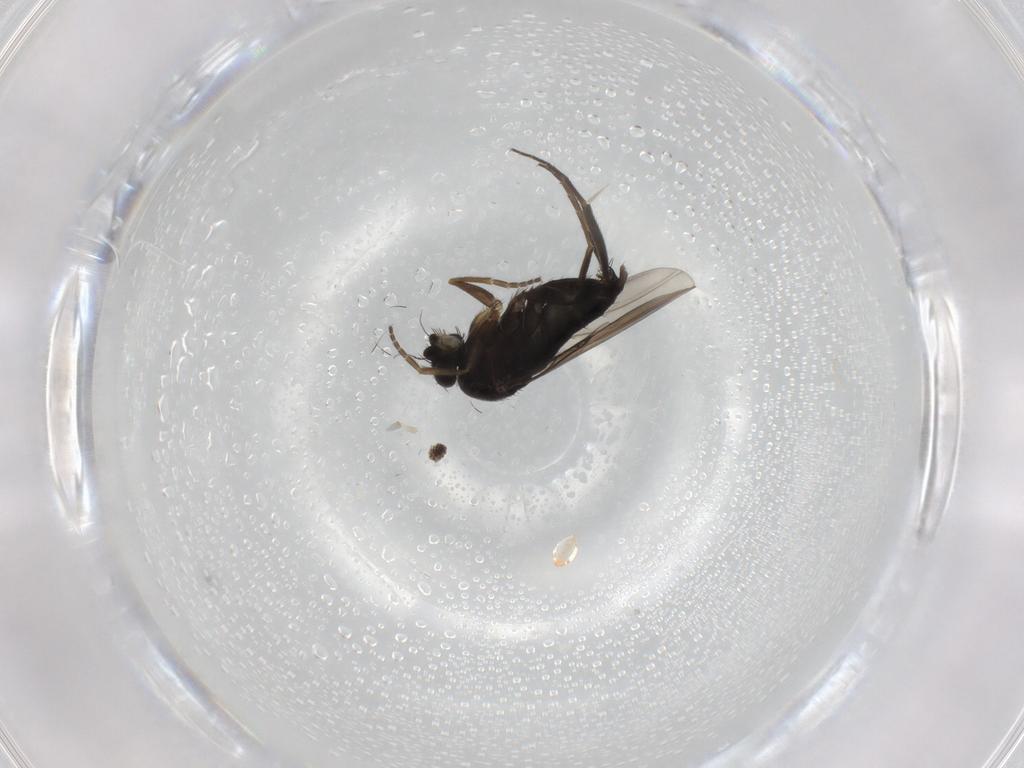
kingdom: Animalia
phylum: Arthropoda
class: Insecta
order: Diptera
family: Phoridae
